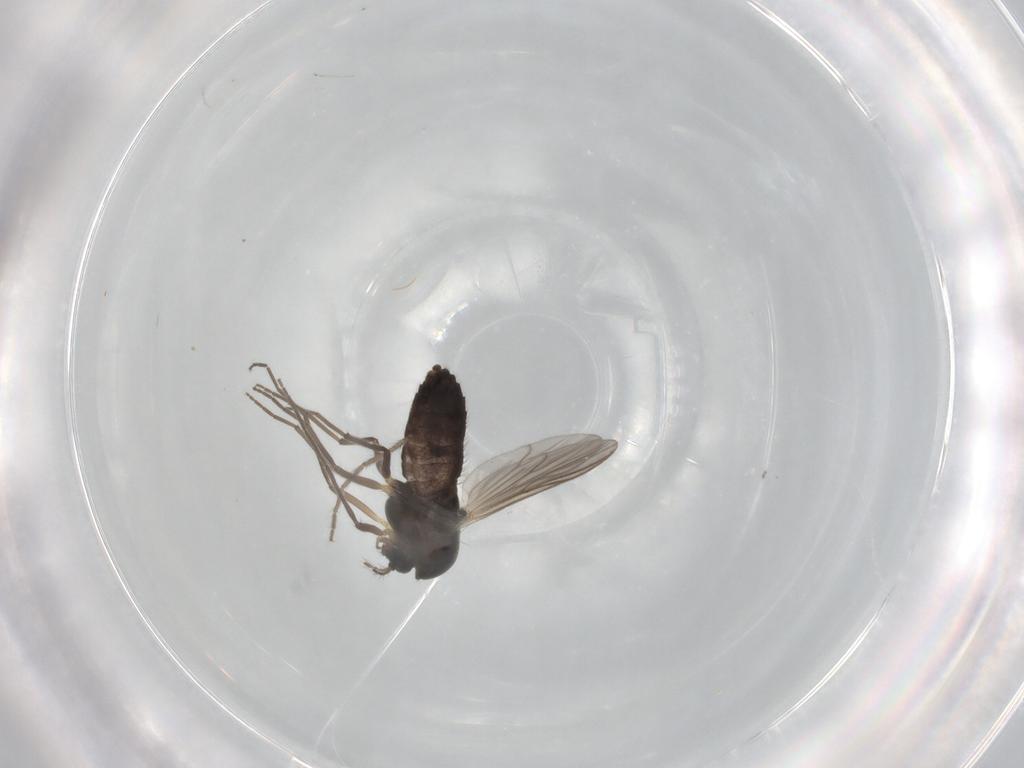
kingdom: Animalia
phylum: Arthropoda
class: Insecta
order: Diptera
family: Chironomidae
